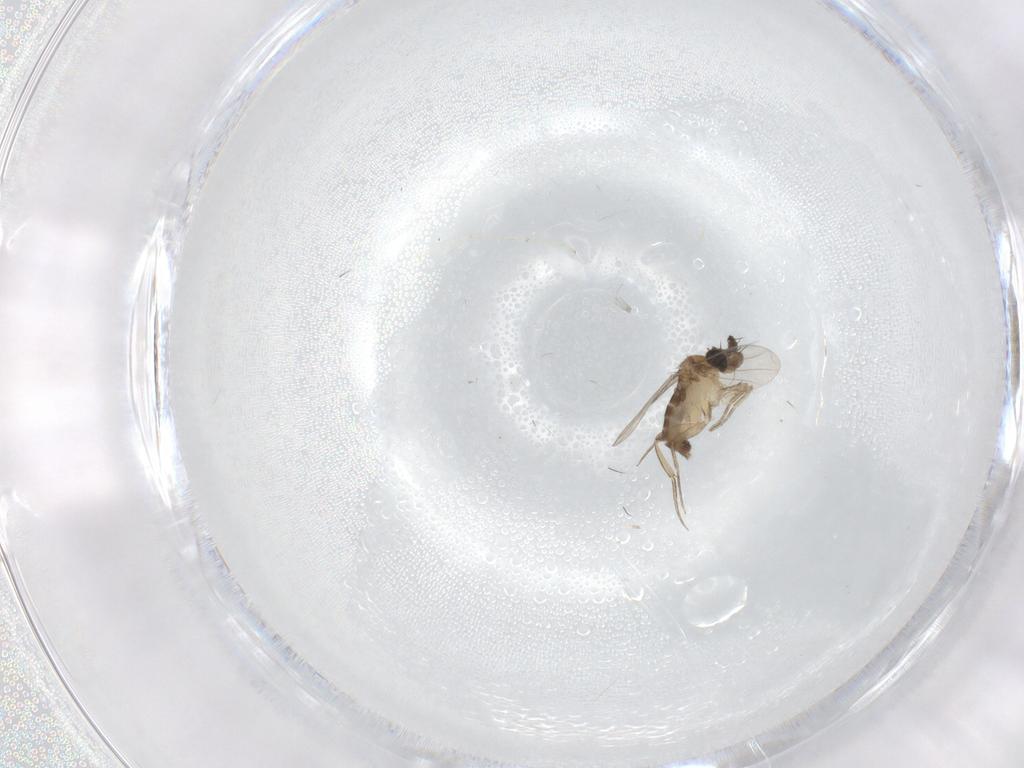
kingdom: Animalia
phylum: Arthropoda
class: Insecta
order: Diptera
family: Phoridae
